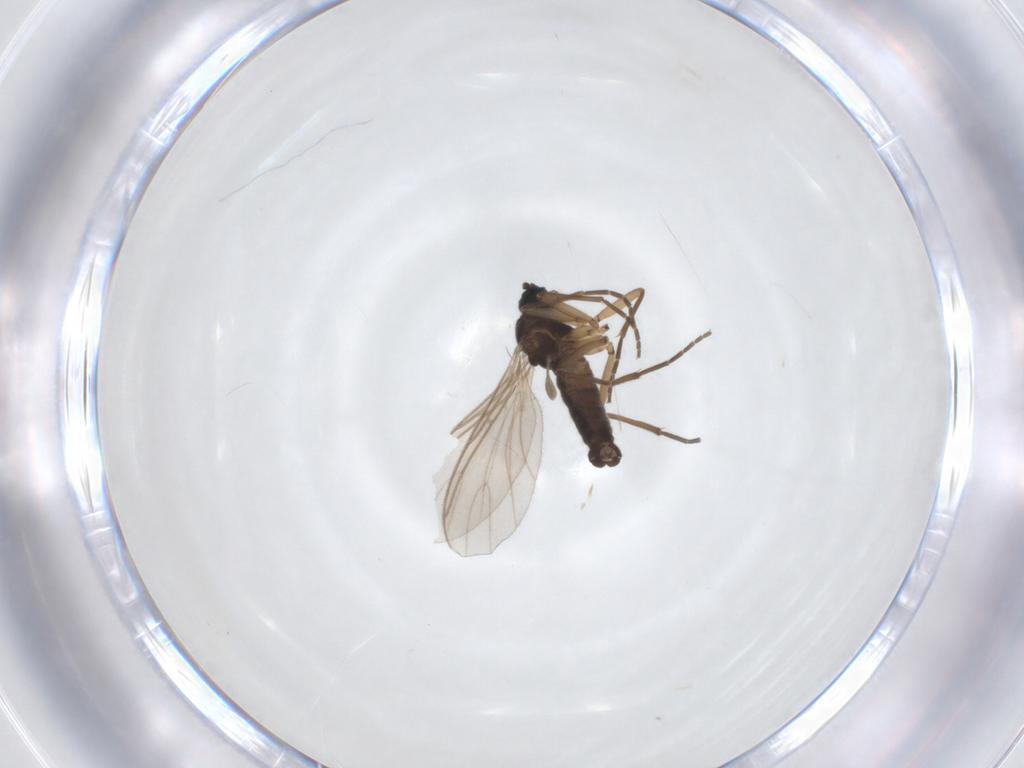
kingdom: Animalia
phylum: Arthropoda
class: Insecta
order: Diptera
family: Sciaridae
